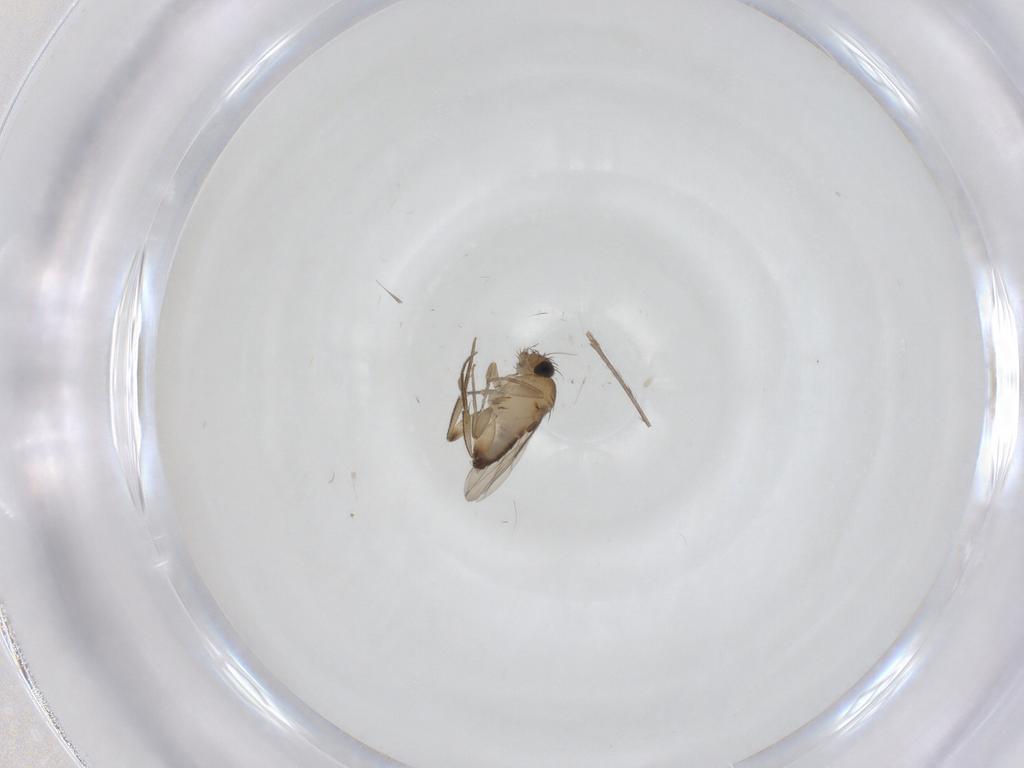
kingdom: Animalia
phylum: Arthropoda
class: Insecta
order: Diptera
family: Phoridae
